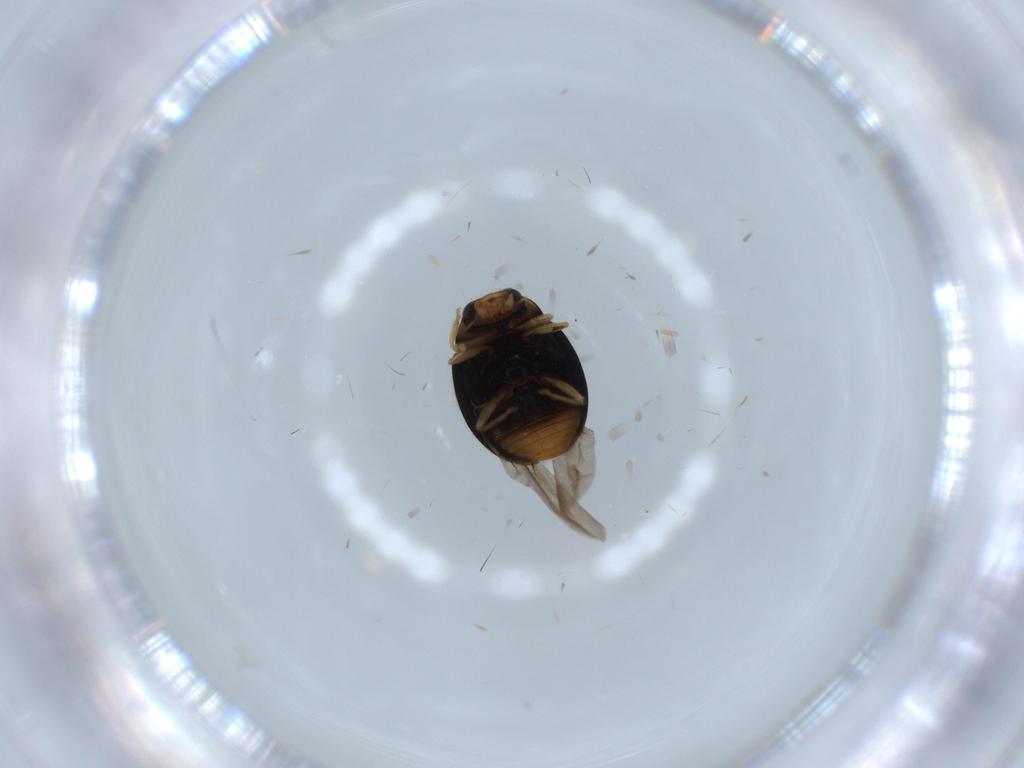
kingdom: Animalia
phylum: Arthropoda
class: Insecta
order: Coleoptera
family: Curculionidae
